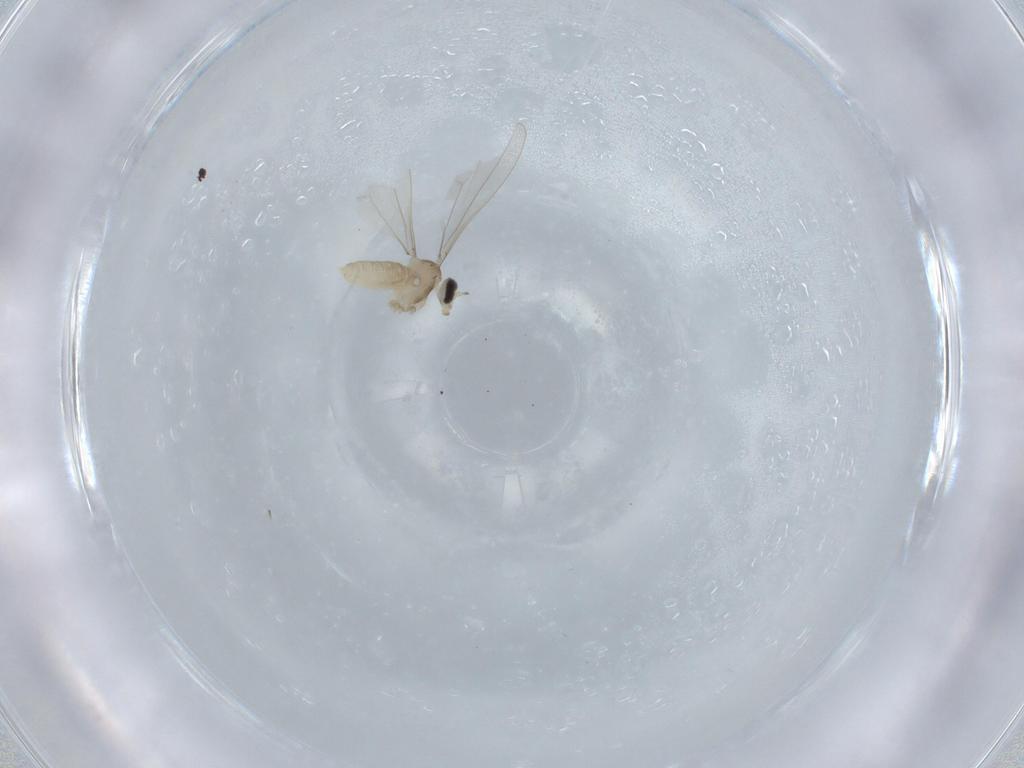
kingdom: Animalia
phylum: Arthropoda
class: Insecta
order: Diptera
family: Cecidomyiidae
